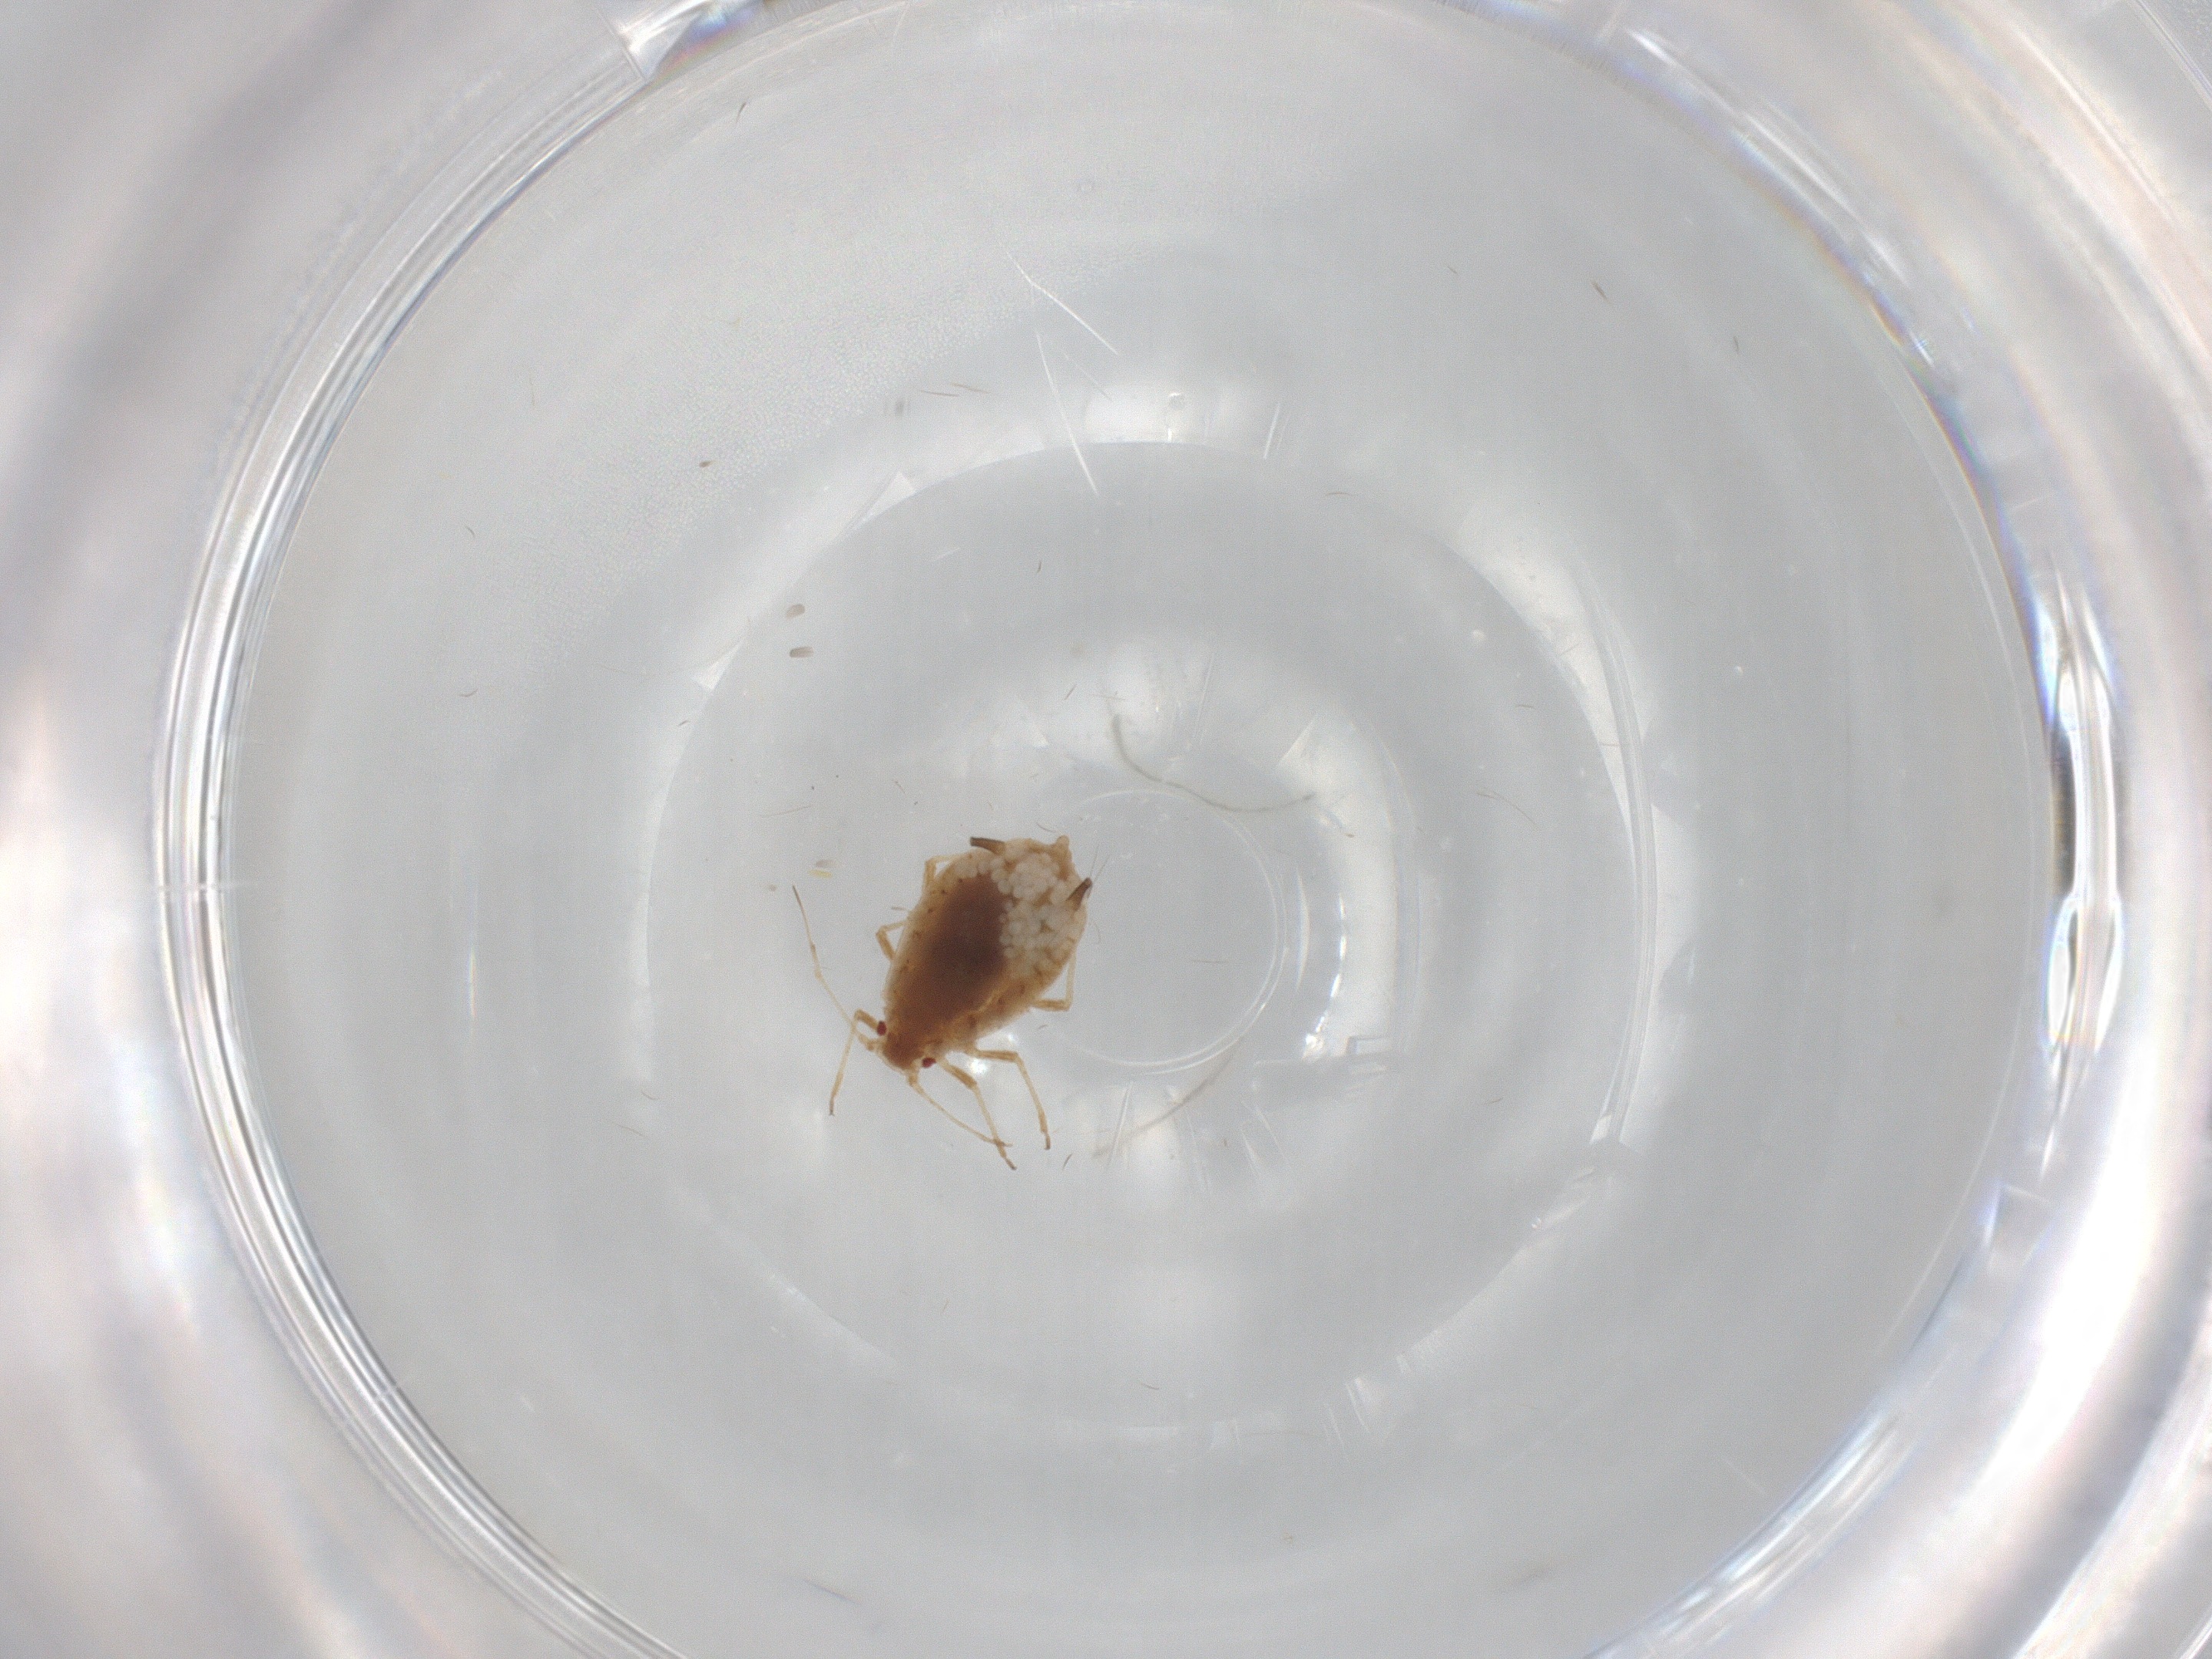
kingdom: Animalia
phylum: Arthropoda
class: Insecta
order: Hemiptera
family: Aphididae
